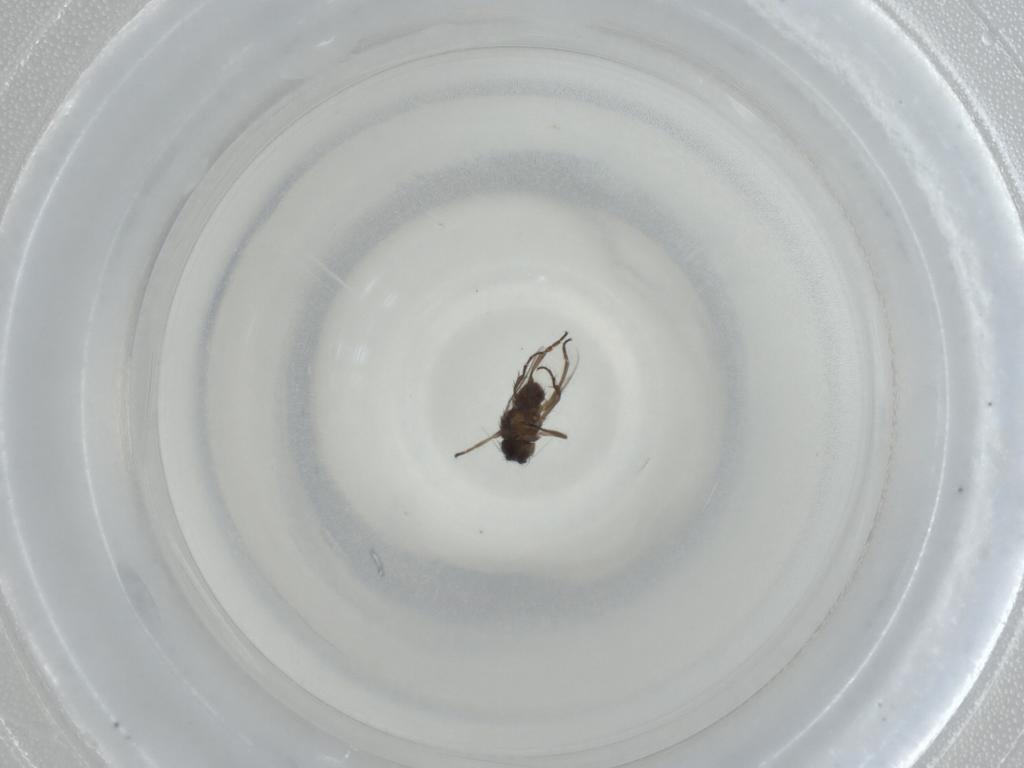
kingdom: Animalia
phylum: Arthropoda
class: Insecta
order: Diptera
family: Sphaeroceridae
